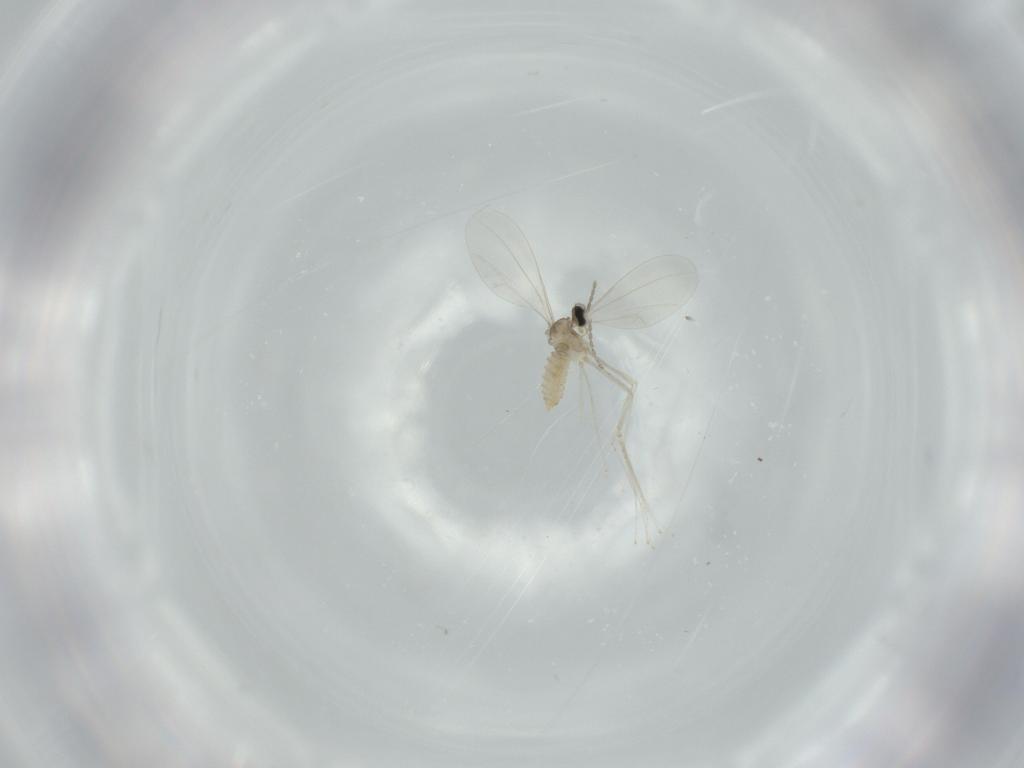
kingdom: Animalia
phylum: Arthropoda
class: Insecta
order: Diptera
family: Cecidomyiidae
